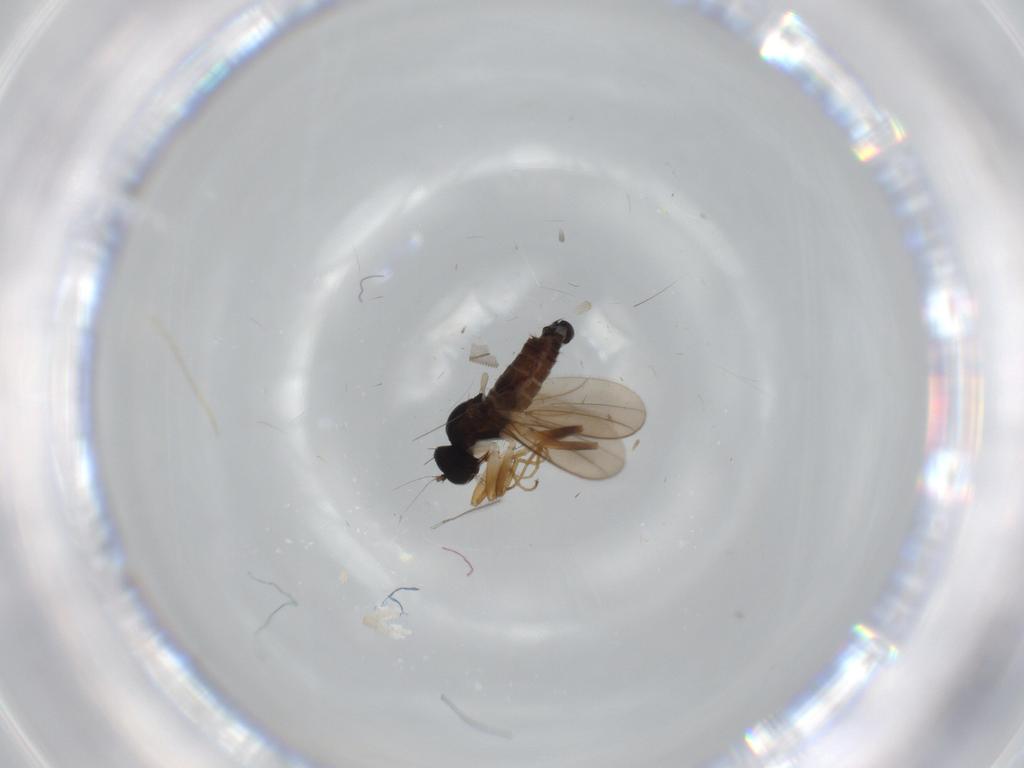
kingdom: Animalia
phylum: Arthropoda
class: Insecta
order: Diptera
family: Hybotidae
